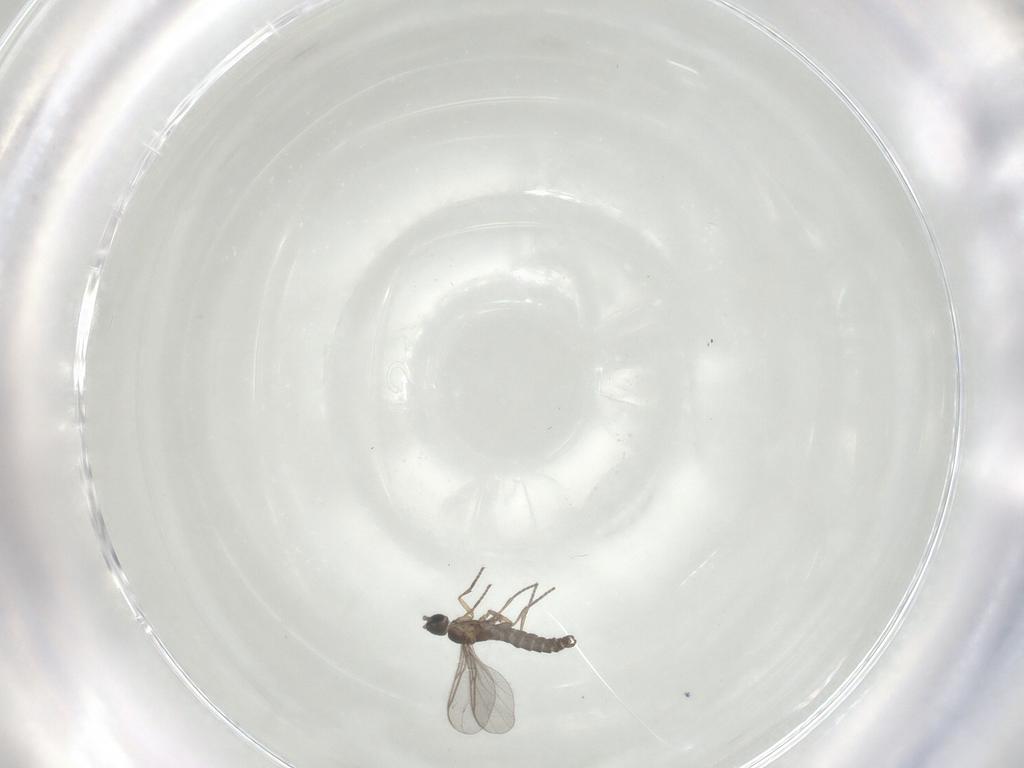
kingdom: Animalia
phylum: Arthropoda
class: Insecta
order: Diptera
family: Sciaridae
